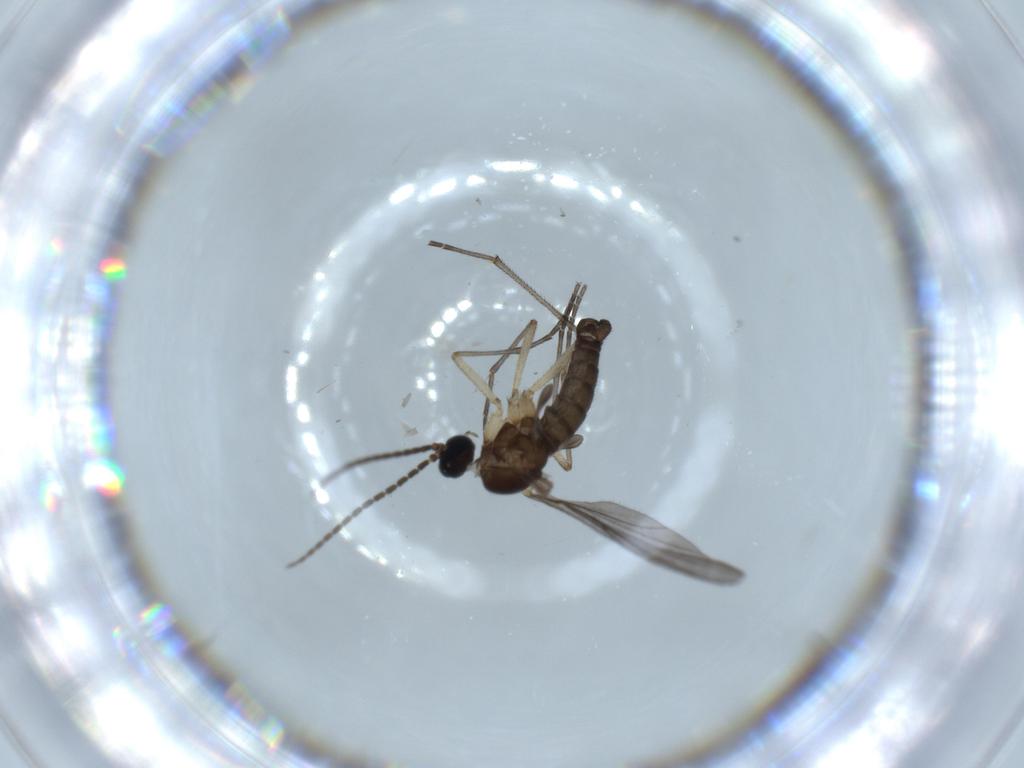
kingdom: Animalia
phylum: Arthropoda
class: Insecta
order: Diptera
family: Sciaridae
